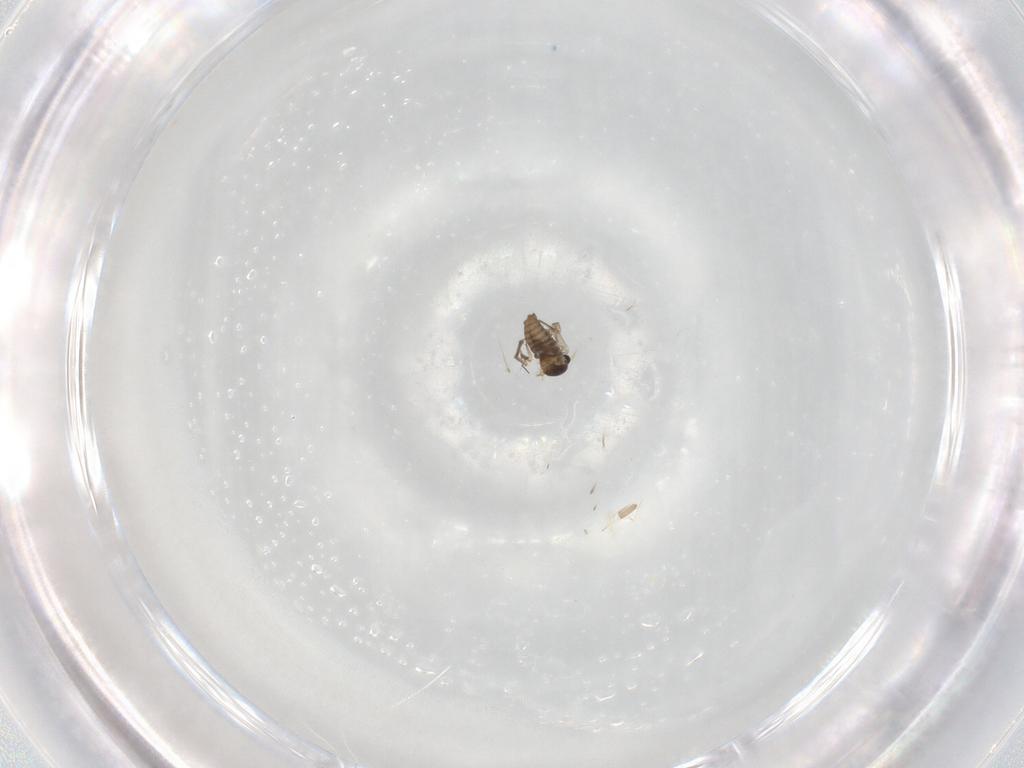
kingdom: Animalia
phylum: Arthropoda
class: Insecta
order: Diptera
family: Cecidomyiidae
